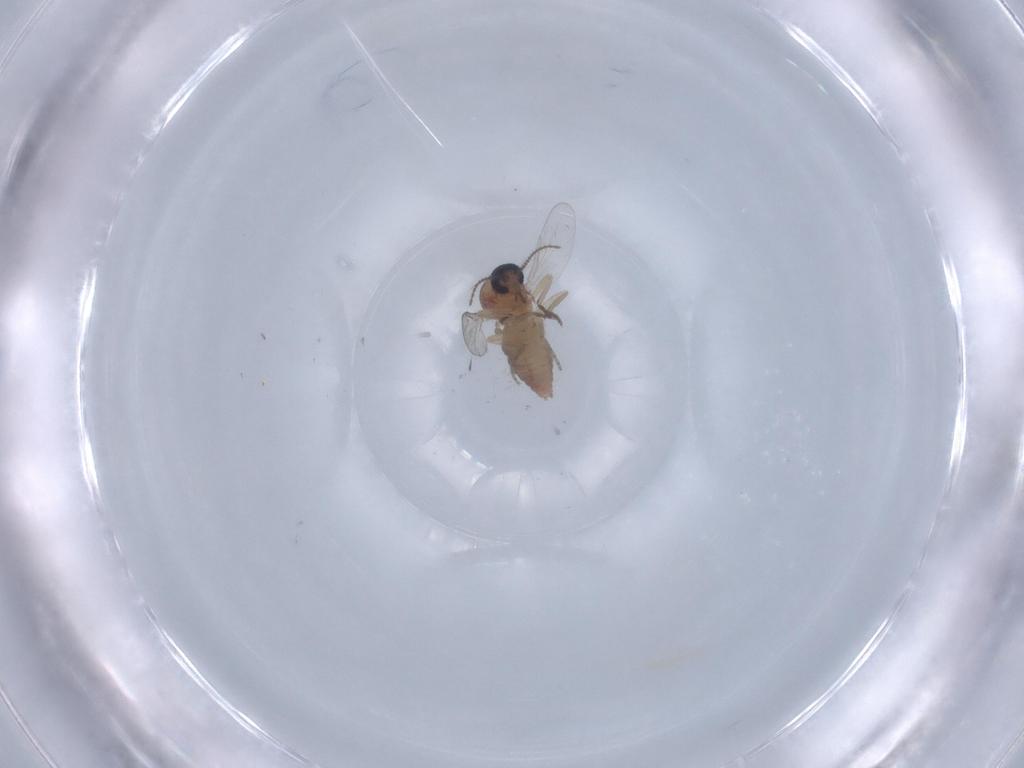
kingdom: Animalia
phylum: Arthropoda
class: Insecta
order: Diptera
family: Ceratopogonidae
